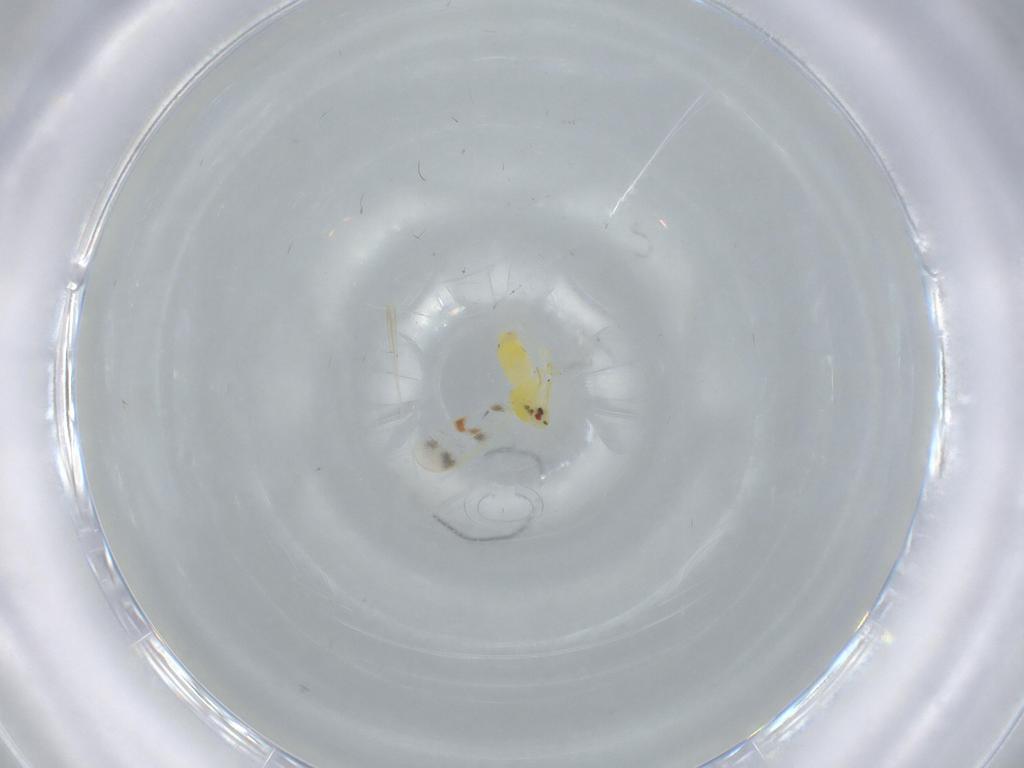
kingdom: Animalia
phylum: Arthropoda
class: Insecta
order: Hemiptera
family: Aleyrodidae
